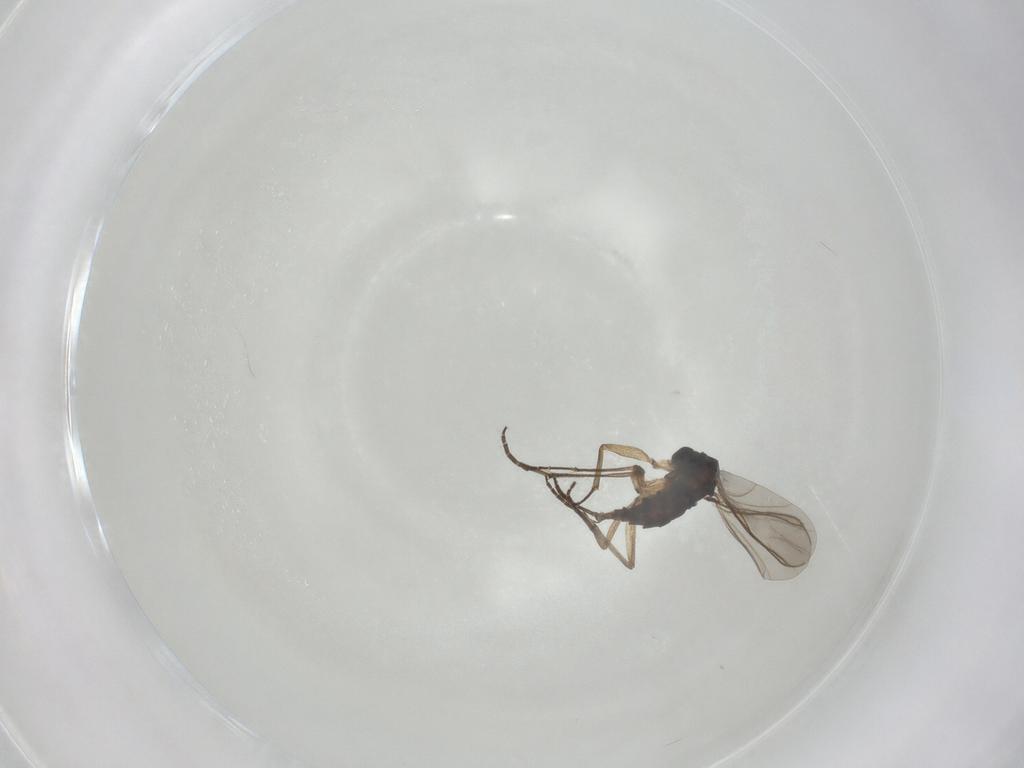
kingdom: Animalia
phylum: Arthropoda
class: Insecta
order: Diptera
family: Sciaridae
